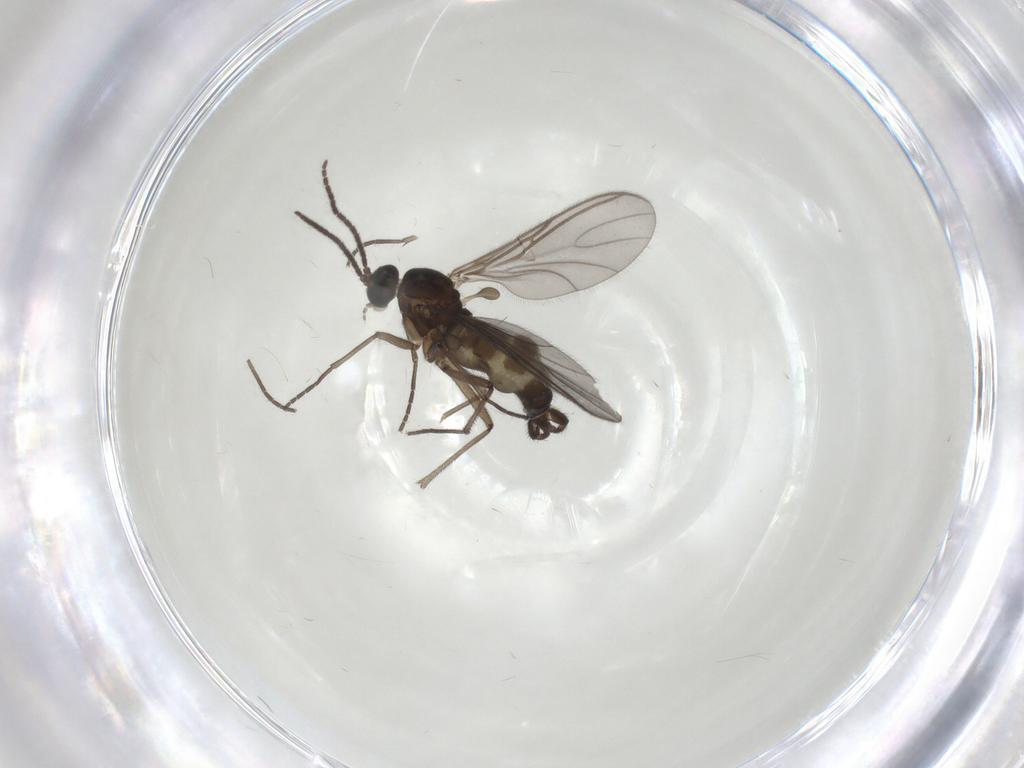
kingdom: Animalia
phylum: Arthropoda
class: Insecta
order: Diptera
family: Sciaridae
